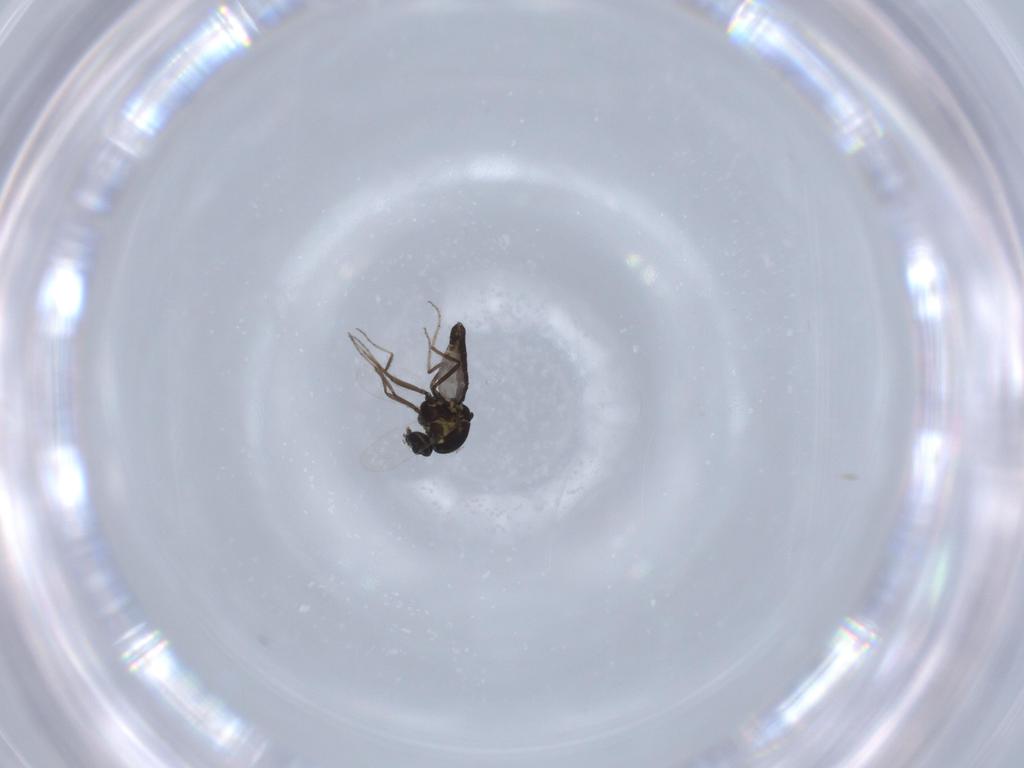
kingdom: Animalia
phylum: Arthropoda
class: Insecta
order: Diptera
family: Ceratopogonidae
